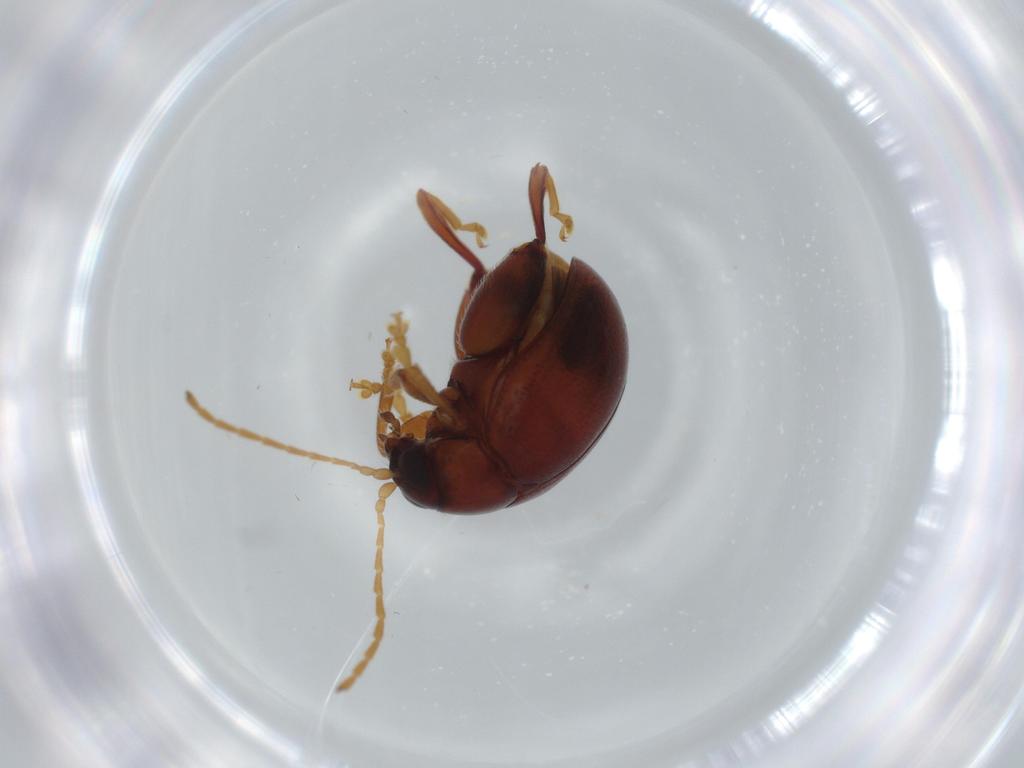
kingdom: Animalia
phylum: Arthropoda
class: Insecta
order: Coleoptera
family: Chrysomelidae
